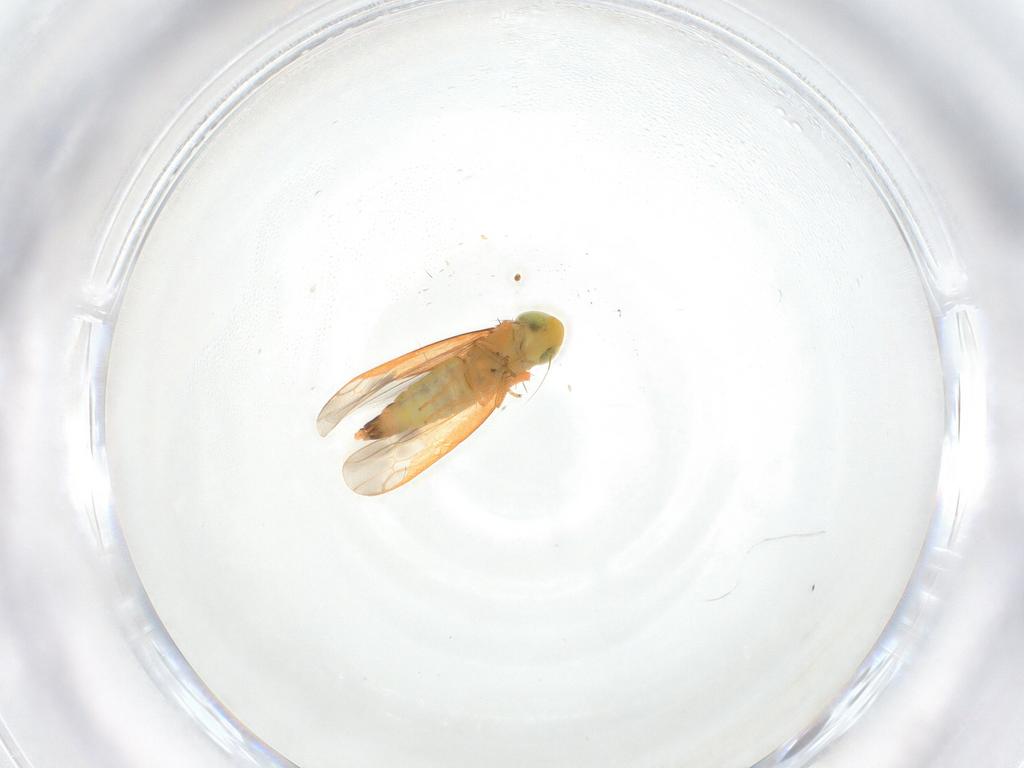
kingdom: Animalia
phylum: Arthropoda
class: Insecta
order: Hemiptera
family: Cicadellidae
